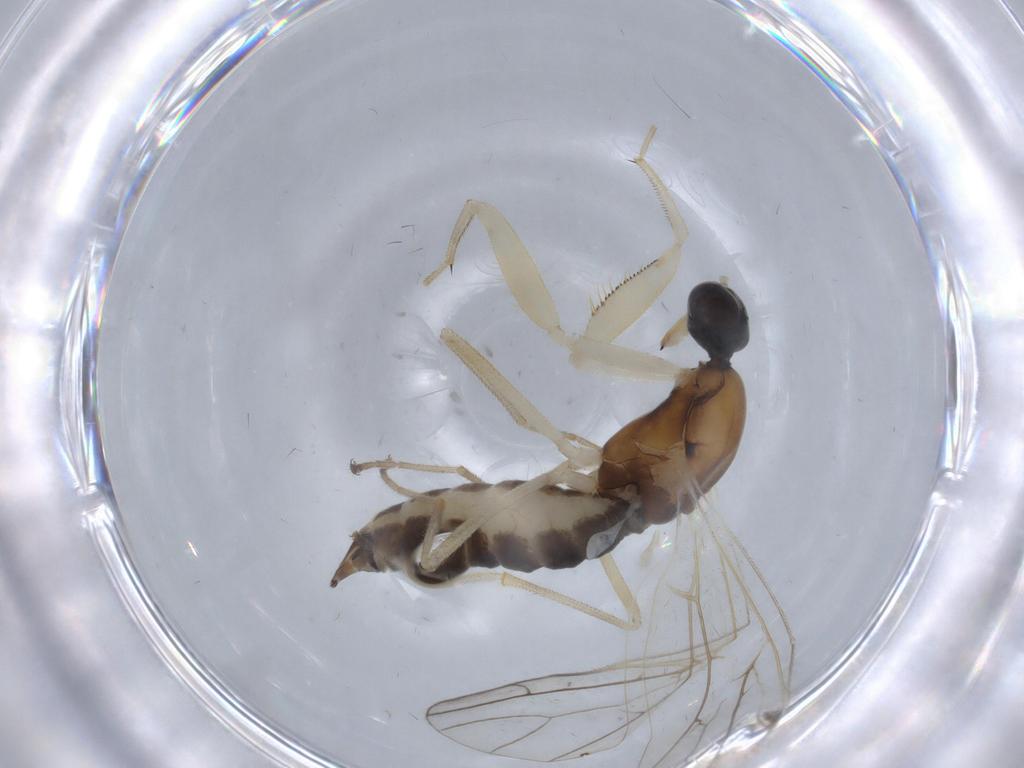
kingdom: Animalia
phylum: Arthropoda
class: Insecta
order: Diptera
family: Empididae
